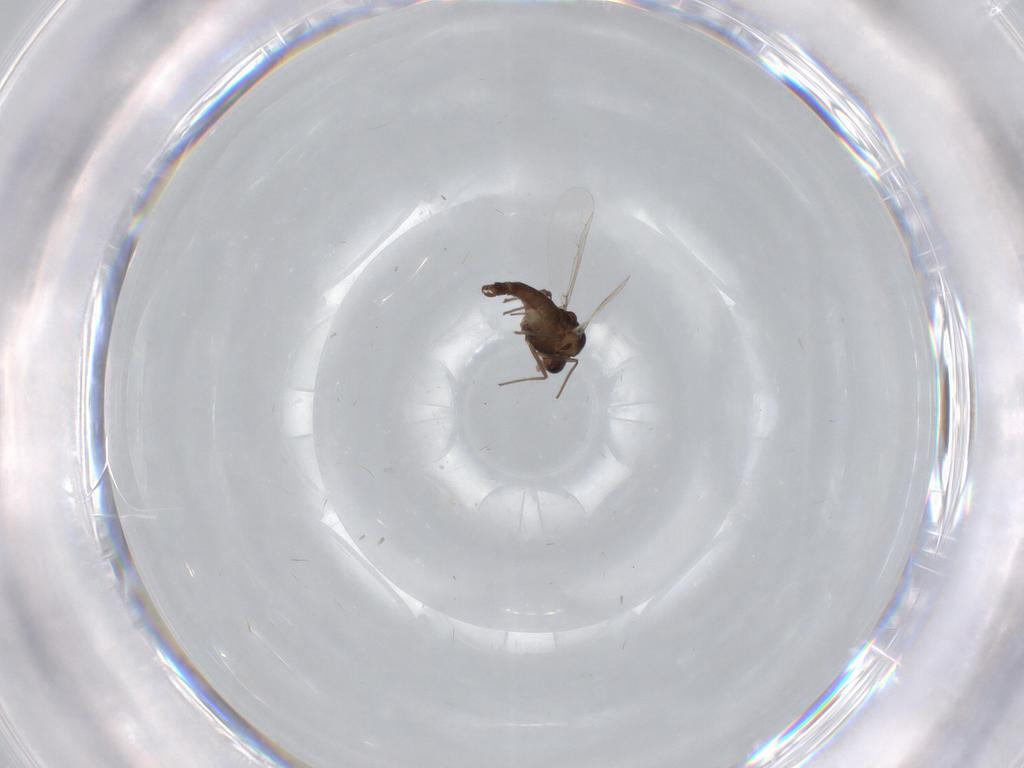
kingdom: Animalia
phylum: Arthropoda
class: Insecta
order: Diptera
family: Chironomidae
